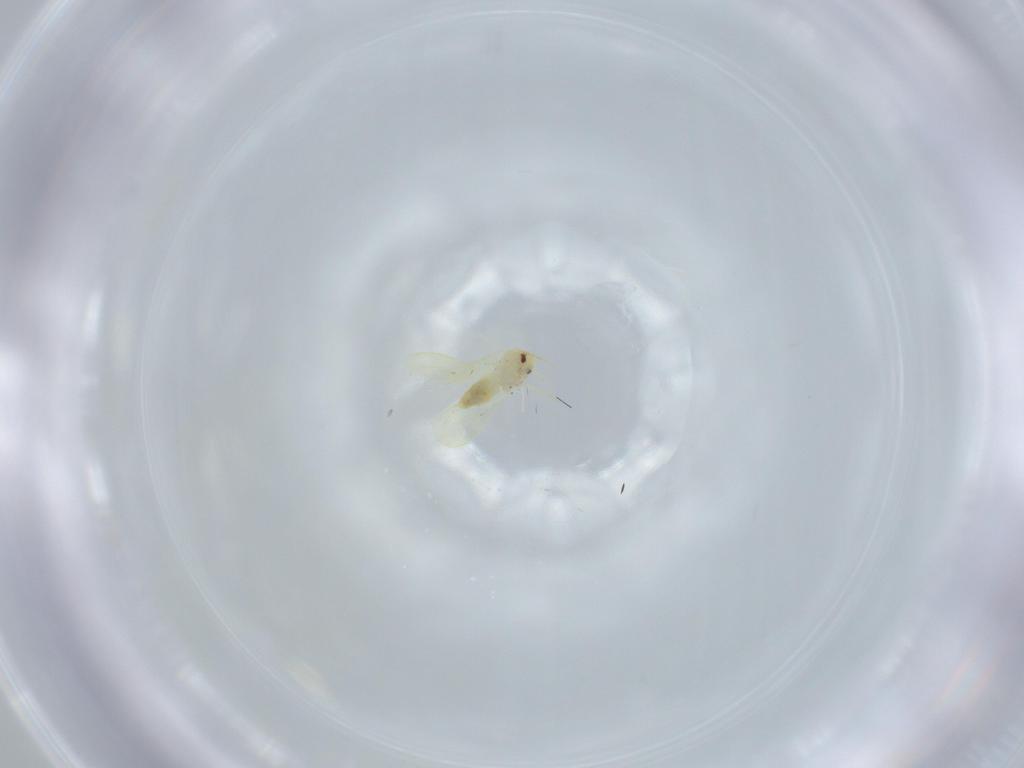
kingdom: Animalia
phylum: Arthropoda
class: Insecta
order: Hemiptera
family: Aleyrodidae
